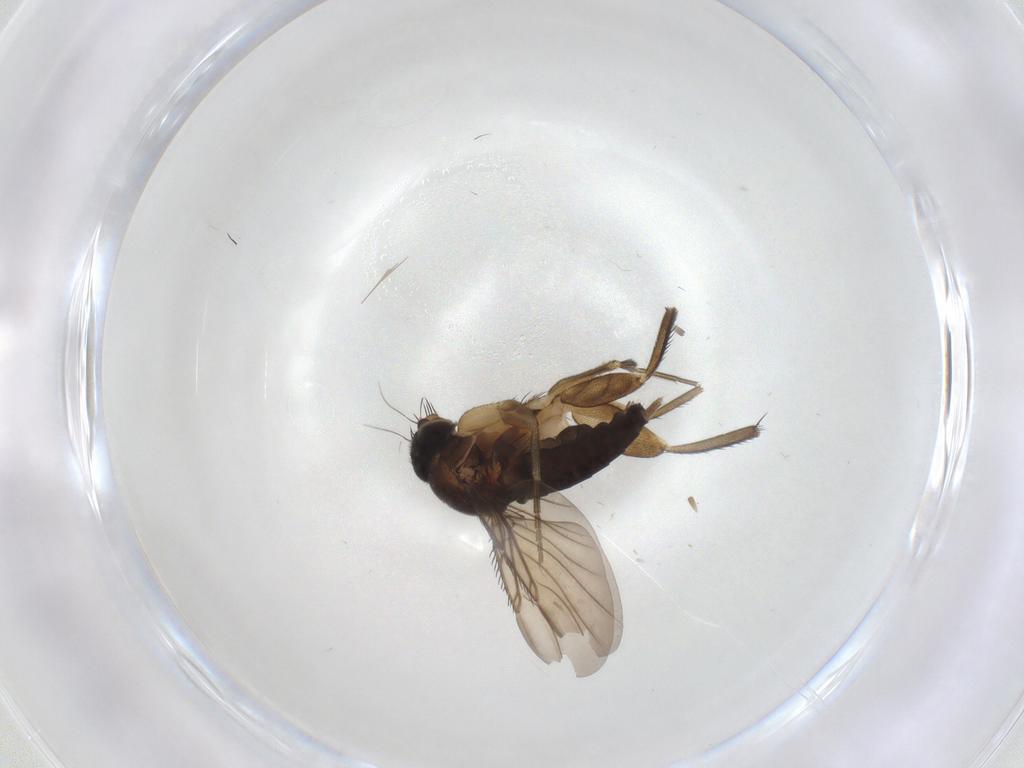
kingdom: Animalia
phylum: Arthropoda
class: Insecta
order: Diptera
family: Phoridae
